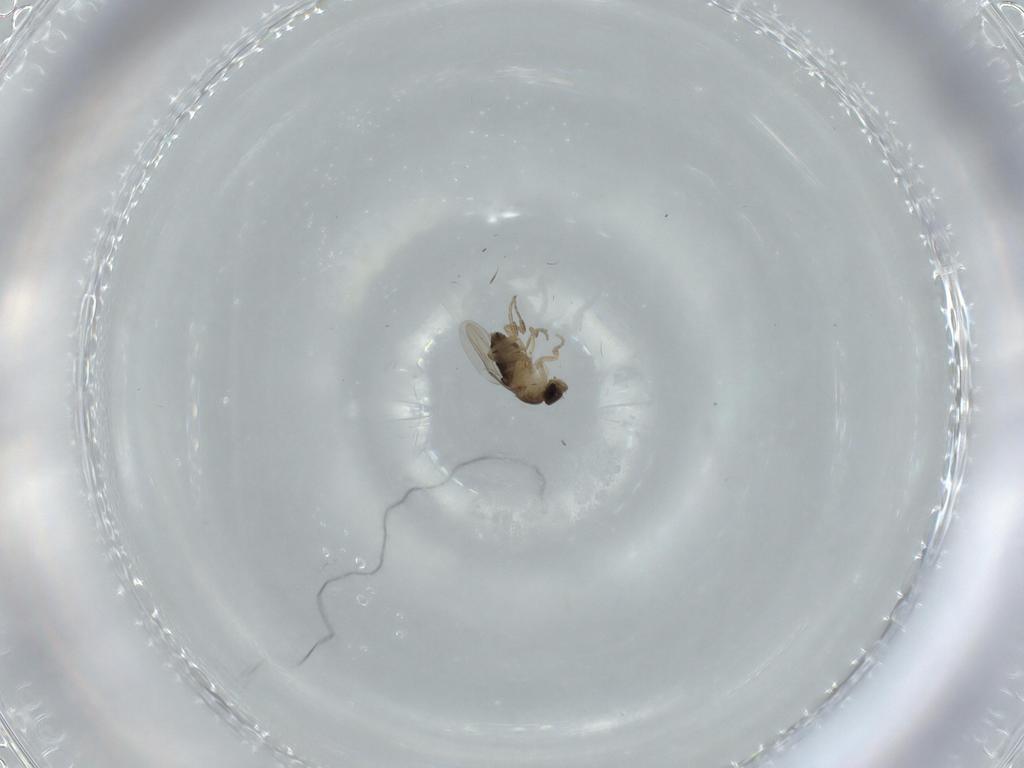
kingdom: Animalia
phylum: Arthropoda
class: Insecta
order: Diptera
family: Phoridae
